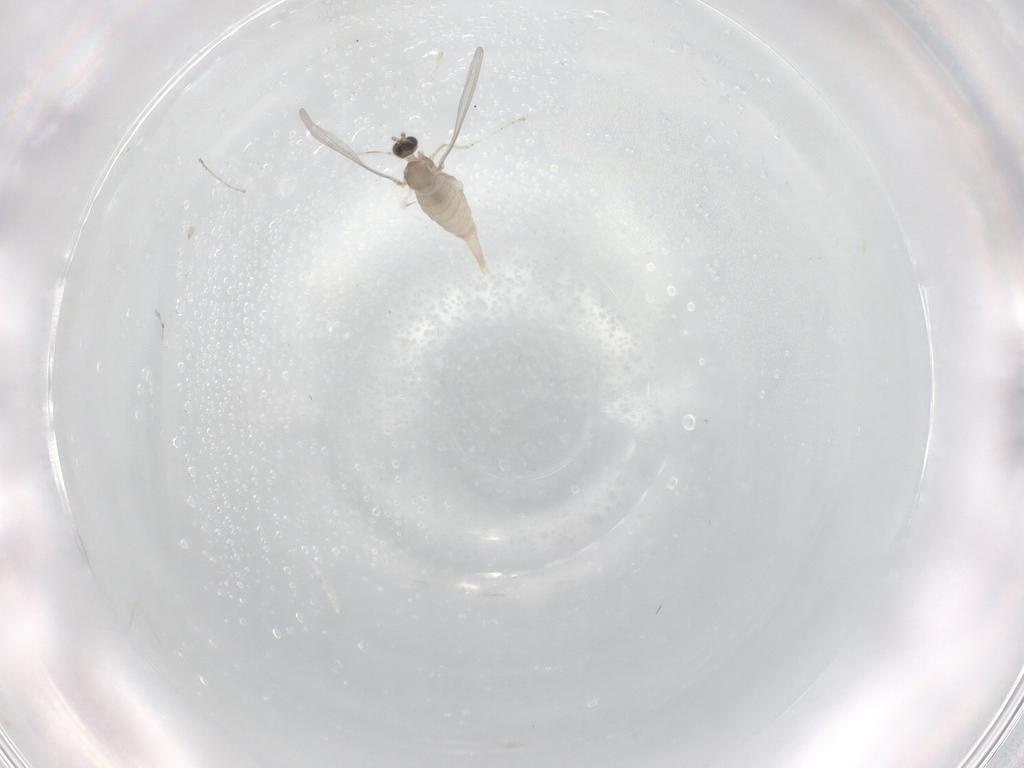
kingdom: Animalia
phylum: Arthropoda
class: Insecta
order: Diptera
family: Cecidomyiidae
